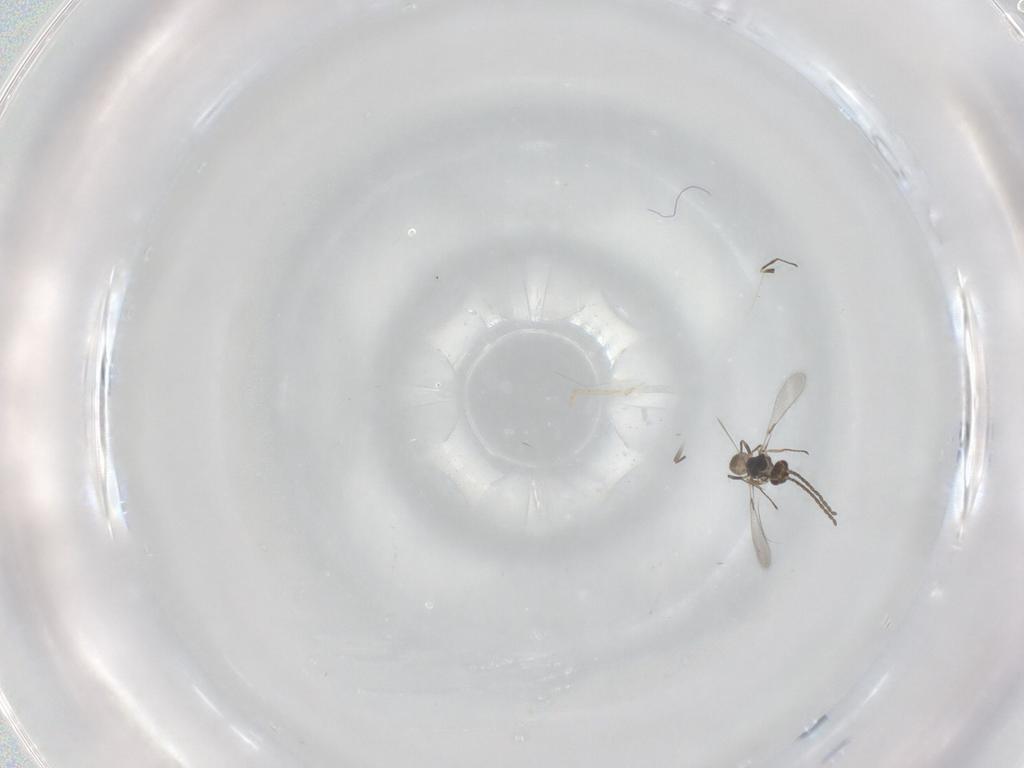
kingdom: Animalia
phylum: Arthropoda
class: Insecta
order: Hymenoptera
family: Mymaridae
